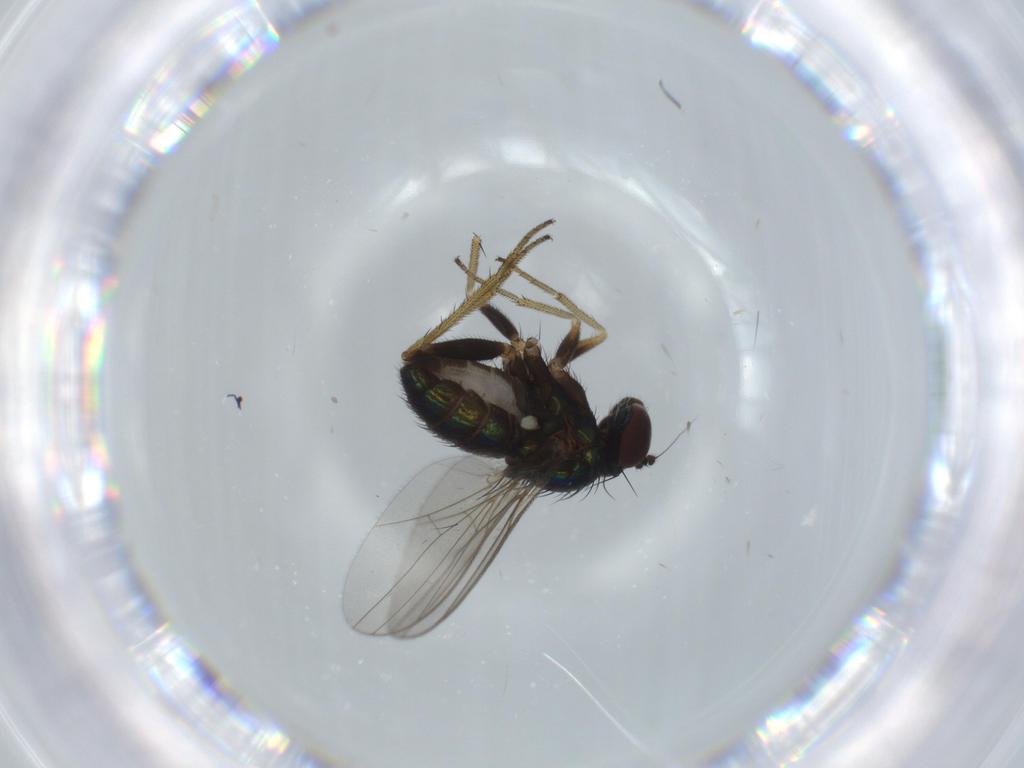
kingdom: Animalia
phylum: Arthropoda
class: Insecta
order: Diptera
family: Dolichopodidae
